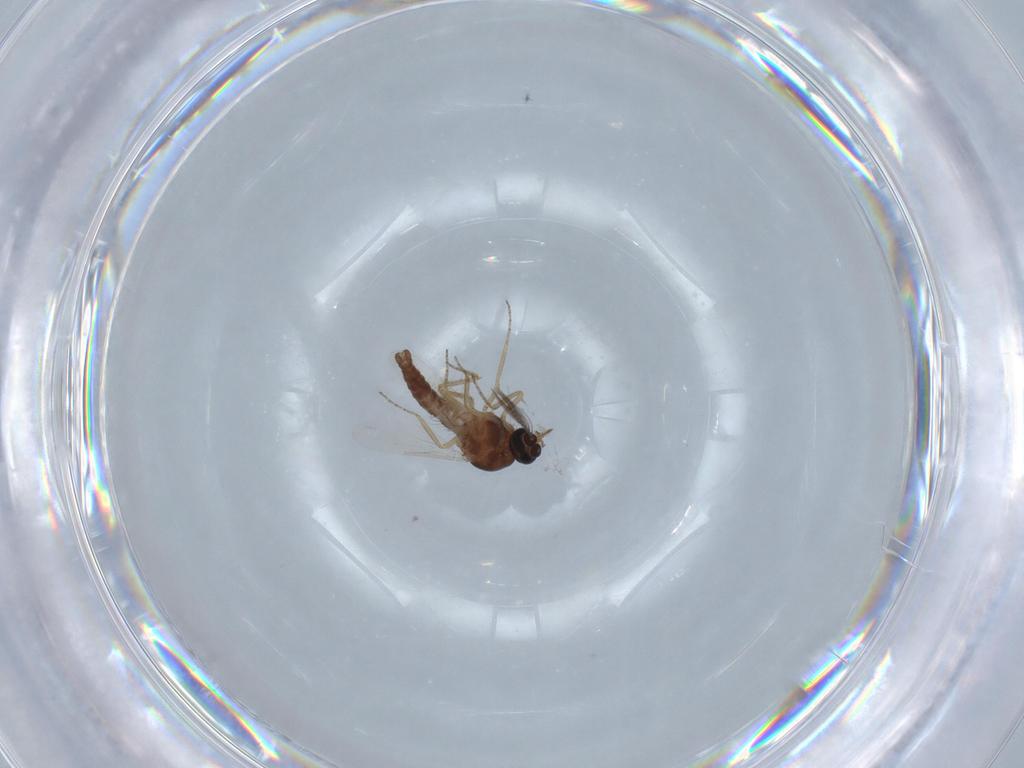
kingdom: Animalia
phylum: Arthropoda
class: Insecta
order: Diptera
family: Ceratopogonidae
